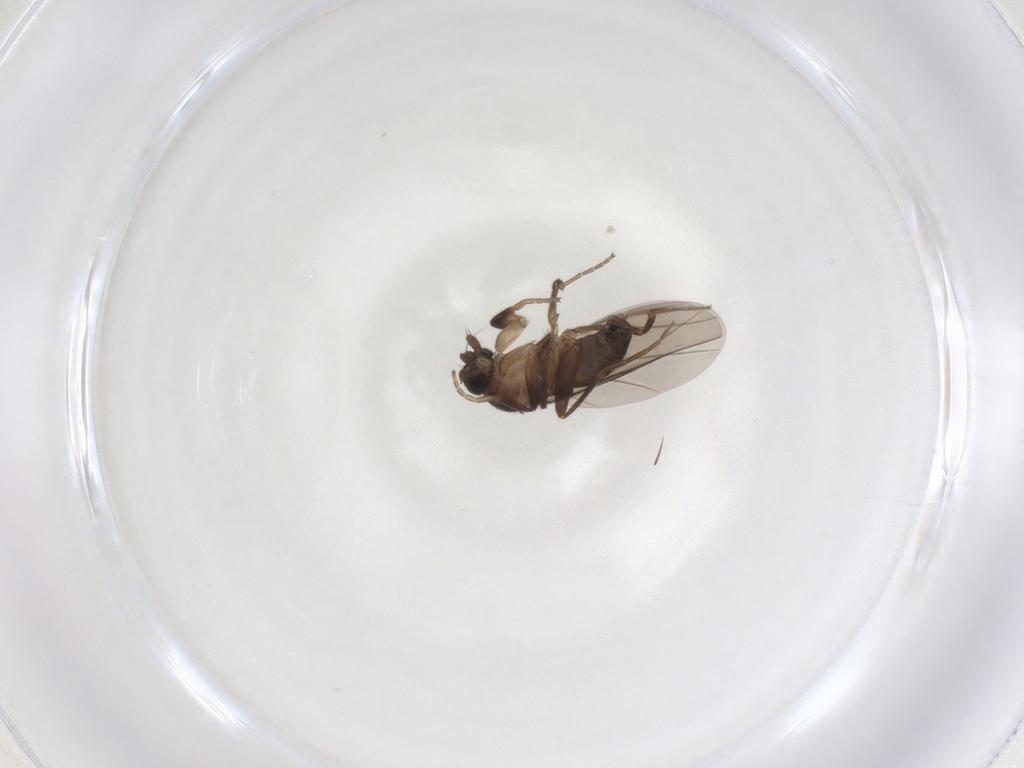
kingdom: Animalia
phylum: Arthropoda
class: Insecta
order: Diptera
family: Phoridae
